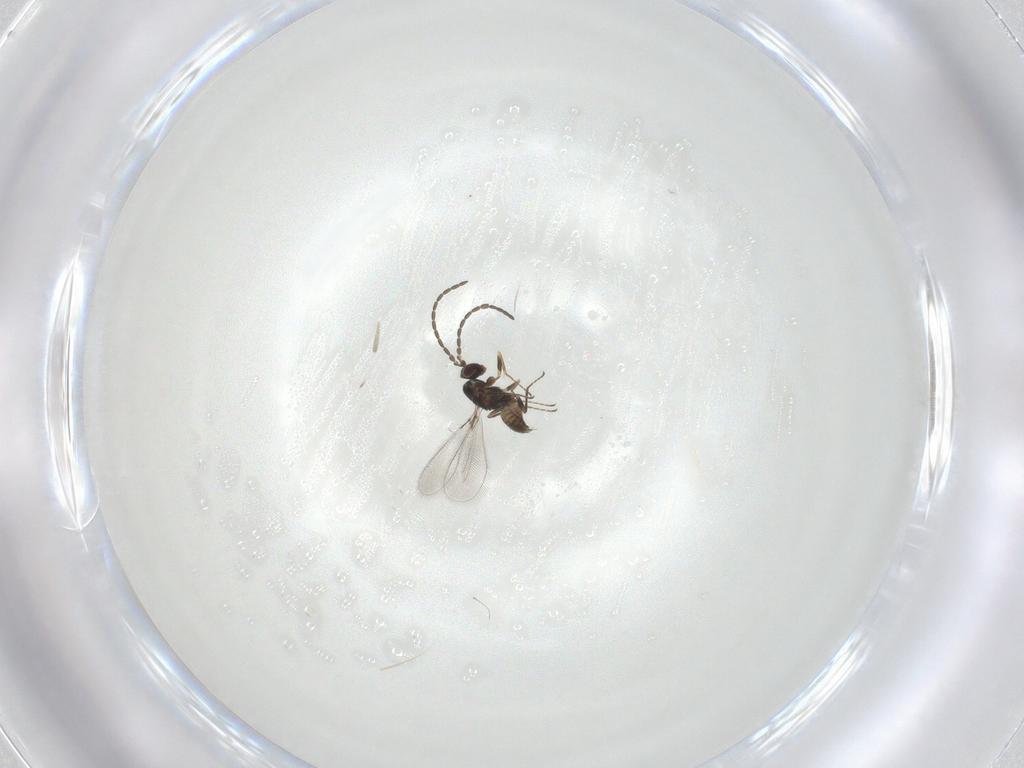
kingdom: Animalia
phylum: Arthropoda
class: Insecta
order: Hymenoptera
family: Mymaridae
